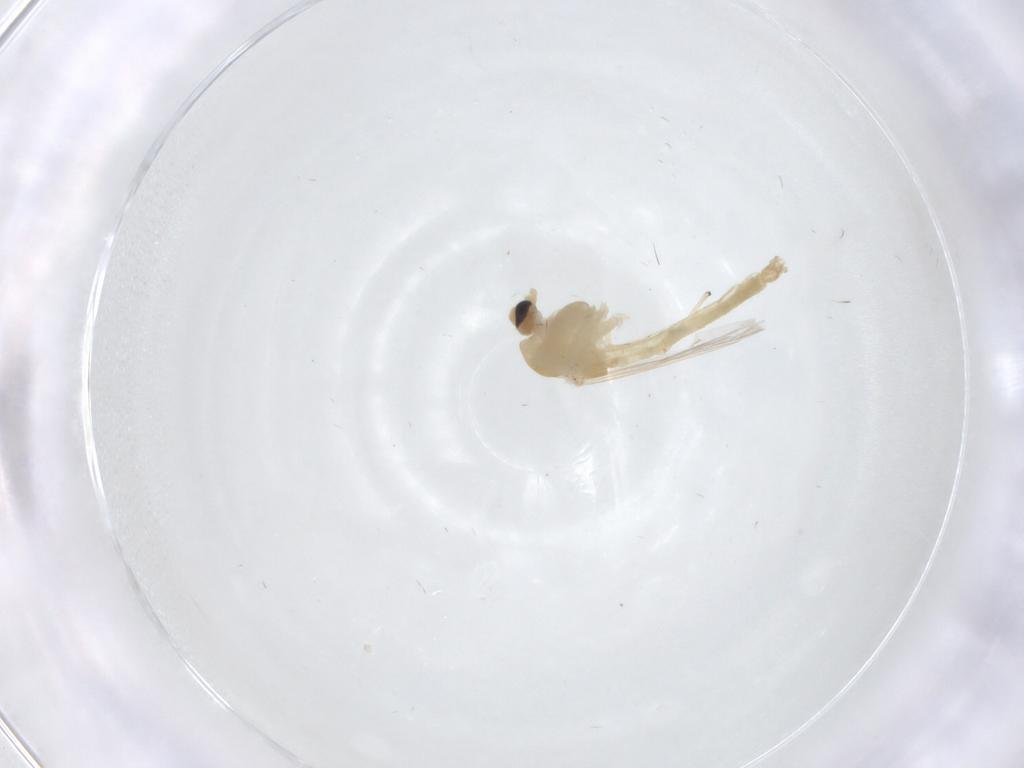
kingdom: Animalia
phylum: Arthropoda
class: Insecta
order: Diptera
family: Chironomidae
